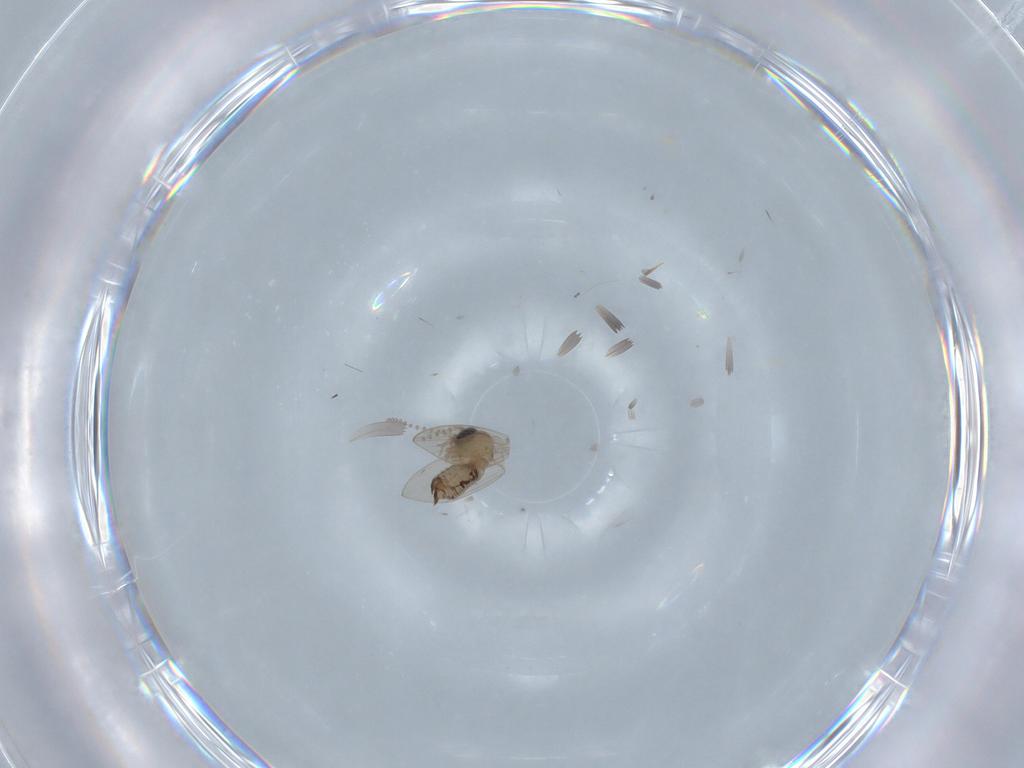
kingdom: Animalia
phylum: Arthropoda
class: Insecta
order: Diptera
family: Psychodidae
